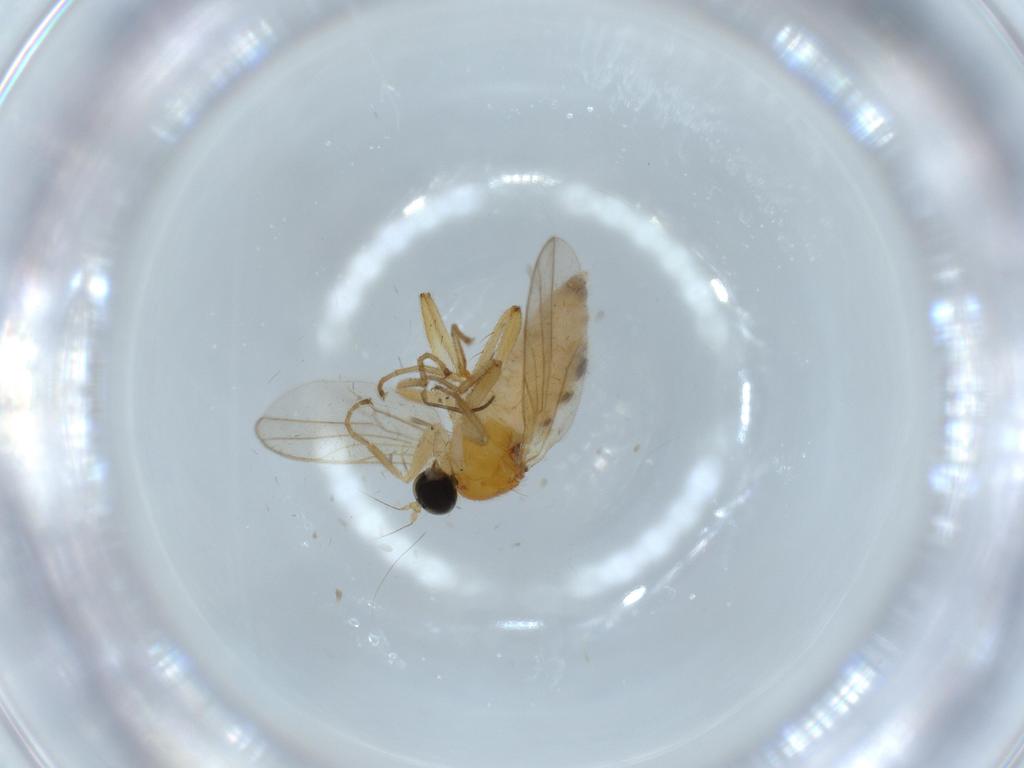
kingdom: Animalia
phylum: Arthropoda
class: Insecta
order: Diptera
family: Hybotidae
